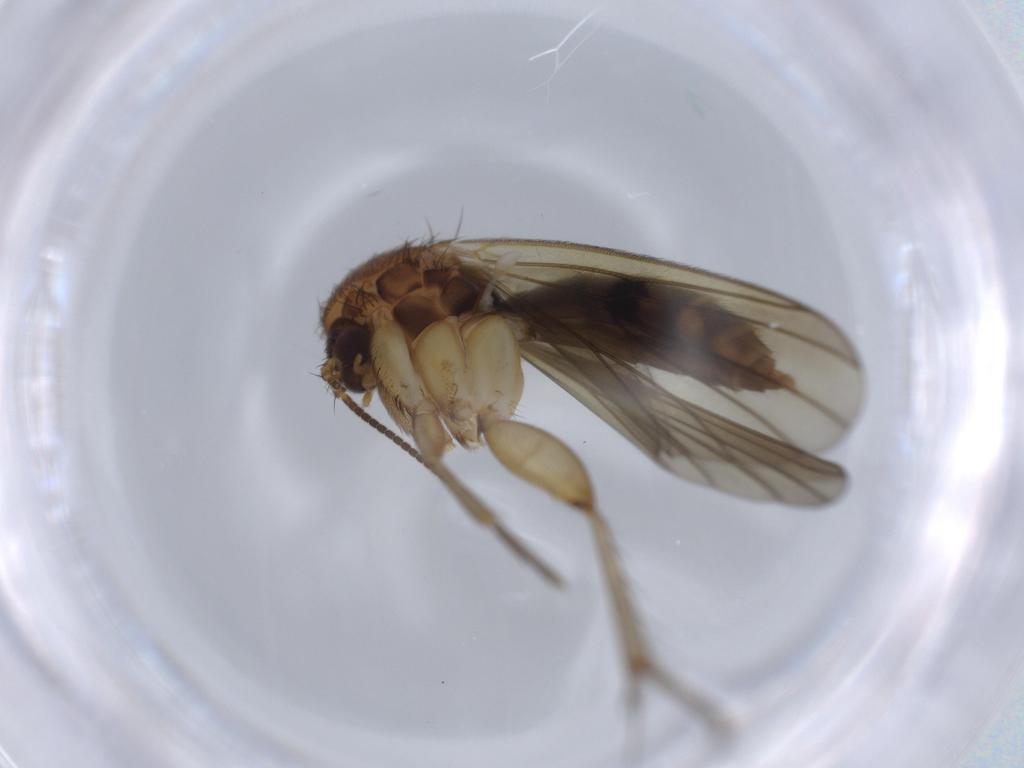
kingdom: Animalia
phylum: Arthropoda
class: Insecta
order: Diptera
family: Mycetophilidae
